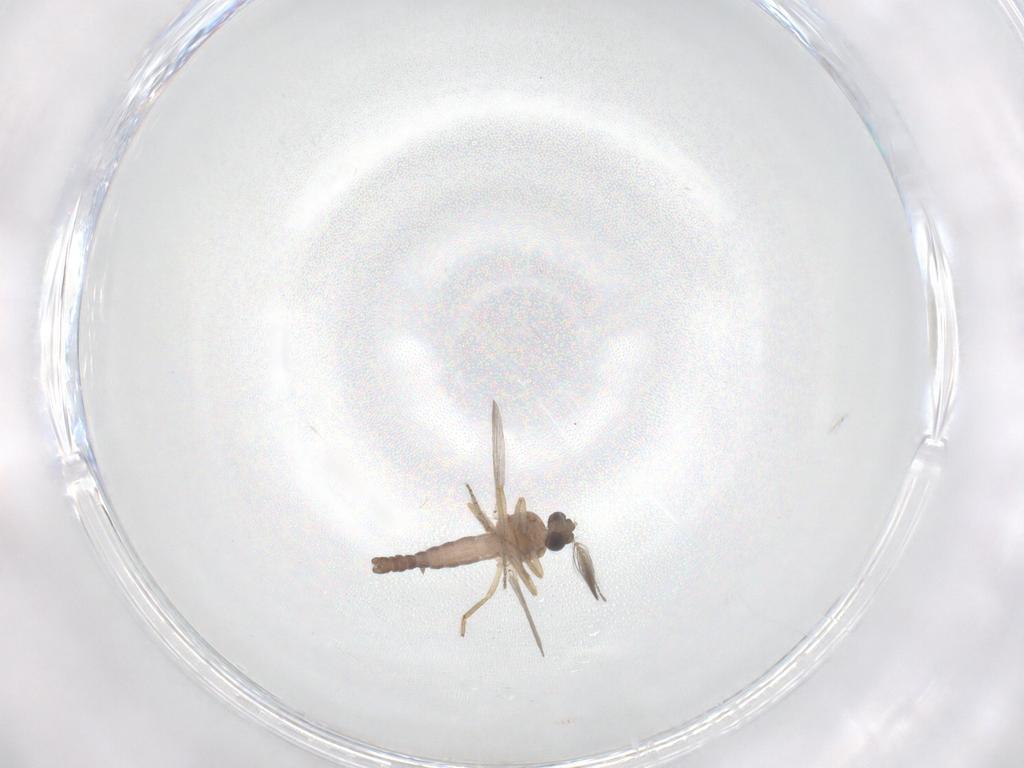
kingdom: Animalia
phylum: Arthropoda
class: Insecta
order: Diptera
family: Ceratopogonidae
